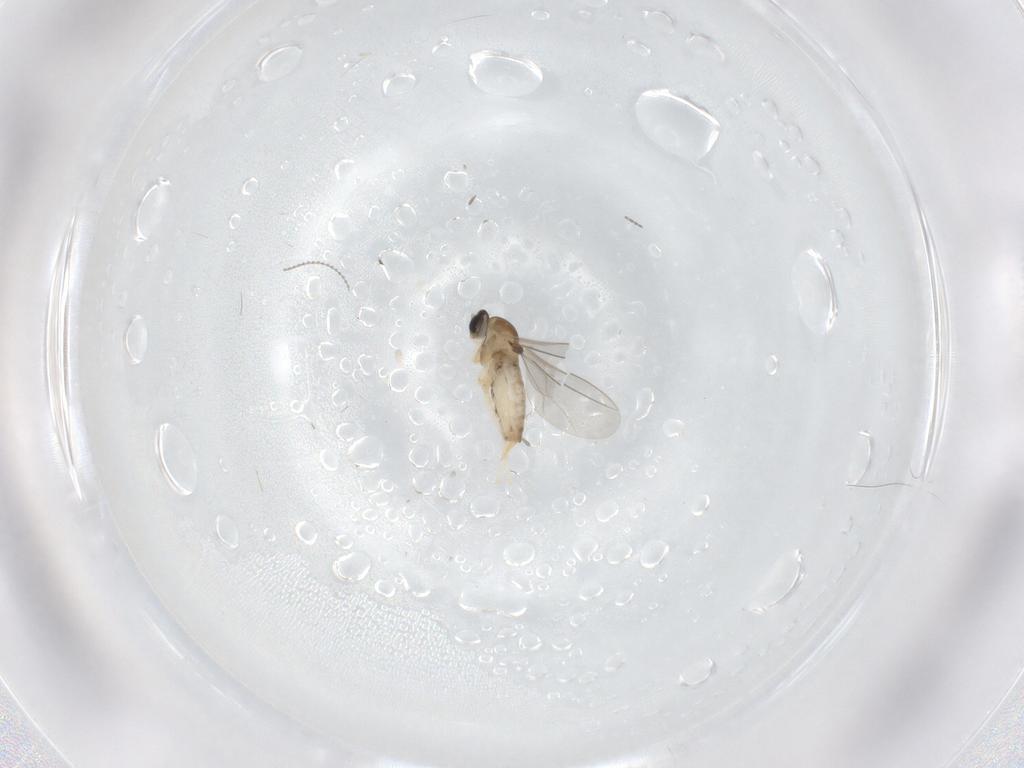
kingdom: Animalia
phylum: Arthropoda
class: Insecta
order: Diptera
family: Cecidomyiidae
